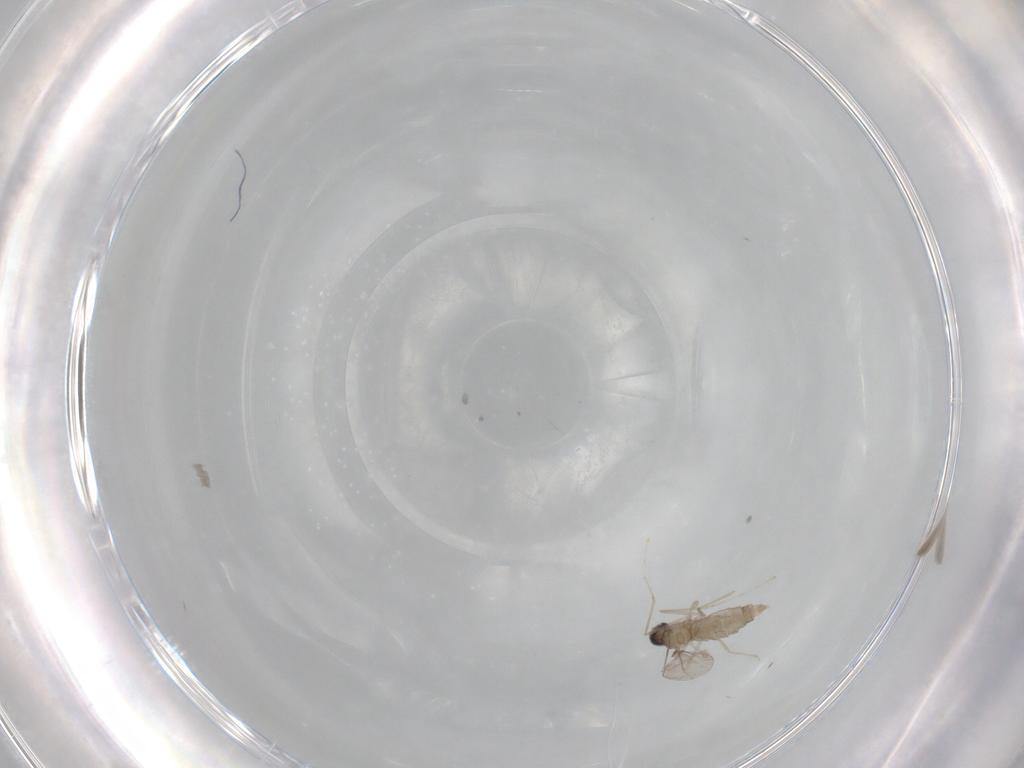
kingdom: Animalia
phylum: Arthropoda
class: Insecta
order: Diptera
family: Cecidomyiidae
